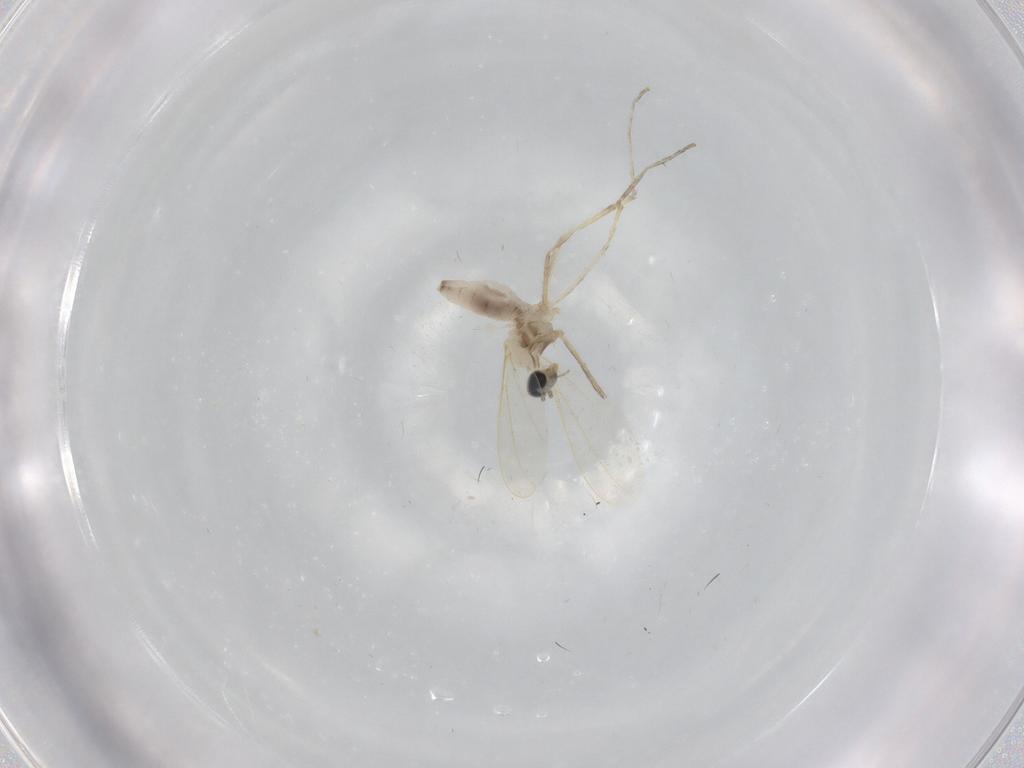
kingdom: Animalia
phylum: Arthropoda
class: Insecta
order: Diptera
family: Cecidomyiidae
